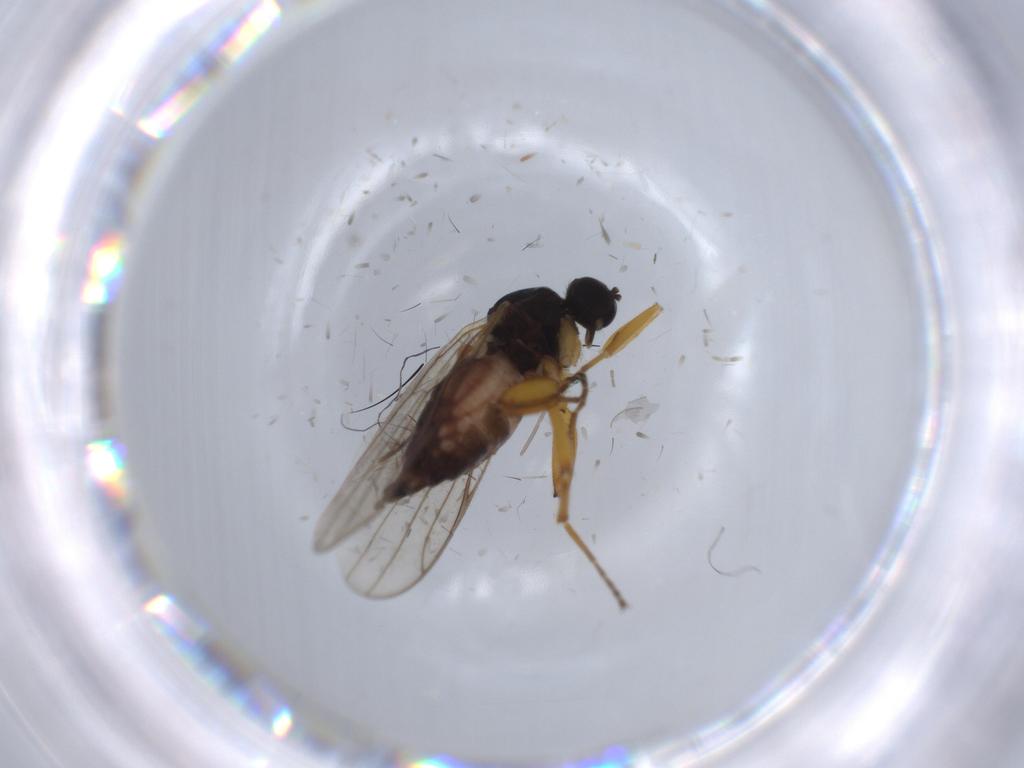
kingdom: Animalia
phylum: Arthropoda
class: Insecta
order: Diptera
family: Hybotidae
